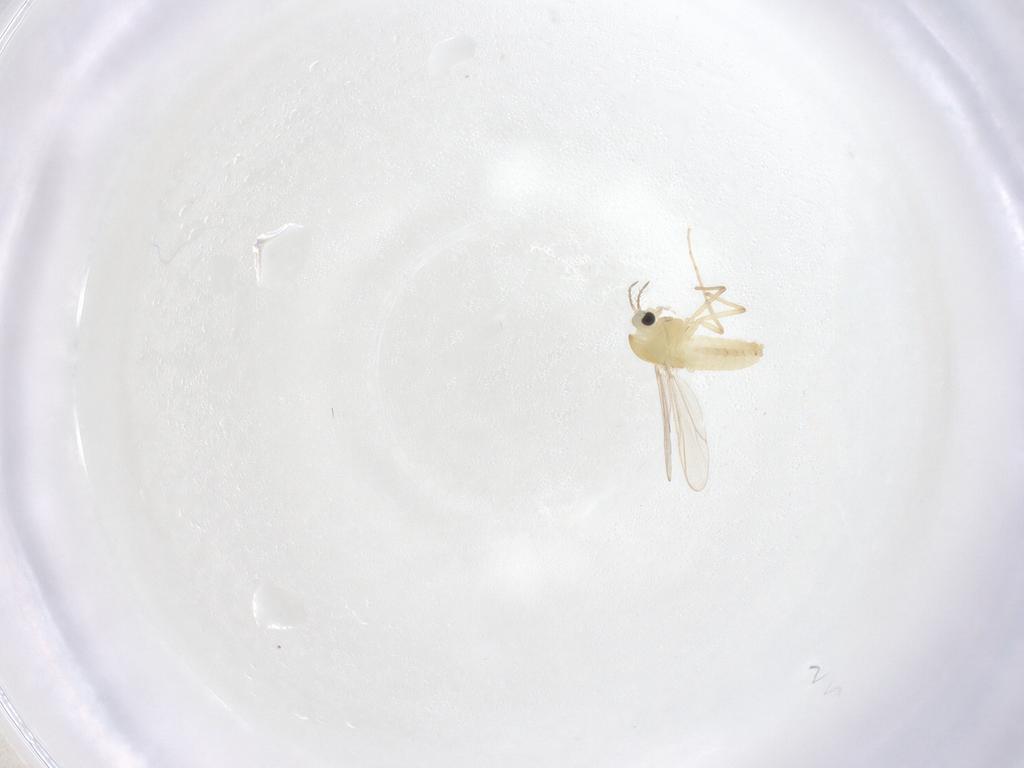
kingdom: Animalia
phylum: Arthropoda
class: Insecta
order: Diptera
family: Chironomidae
